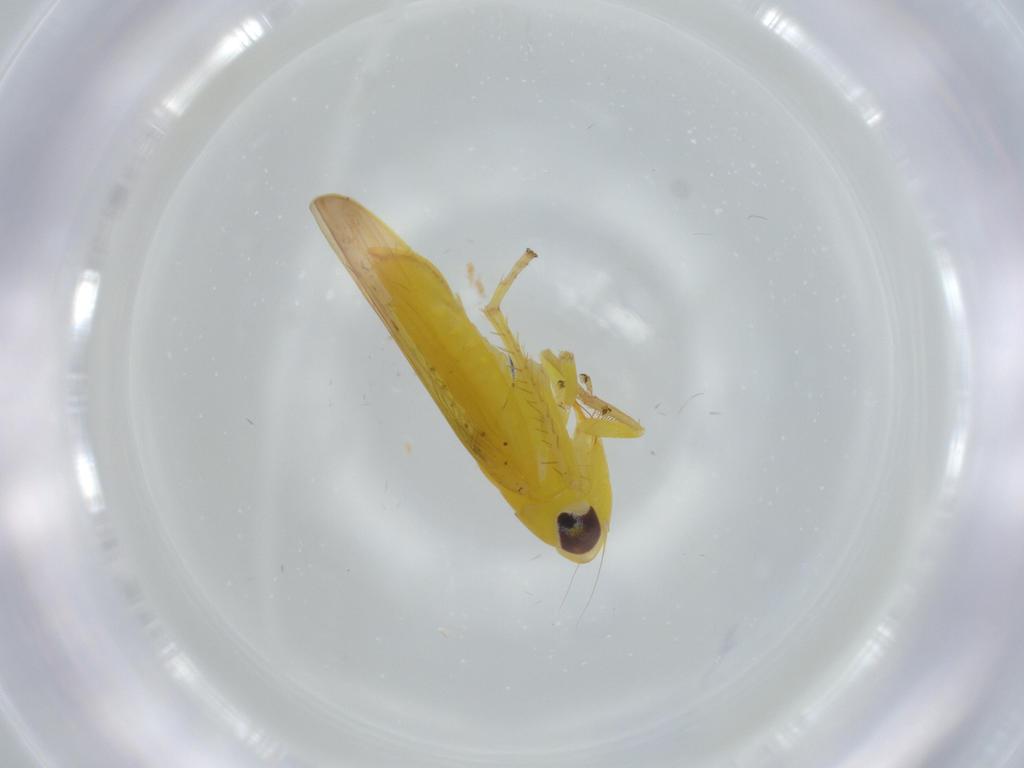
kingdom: Animalia
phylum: Arthropoda
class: Insecta
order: Hemiptera
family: Cicadellidae
